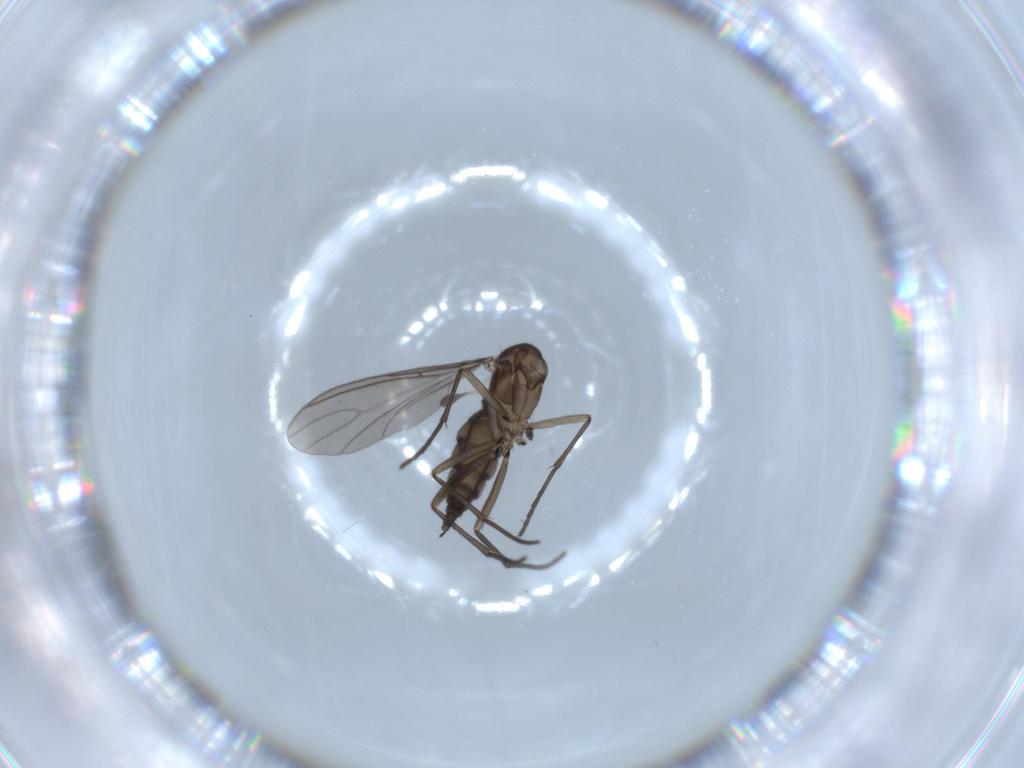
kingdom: Animalia
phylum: Arthropoda
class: Insecta
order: Diptera
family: Sciaridae
